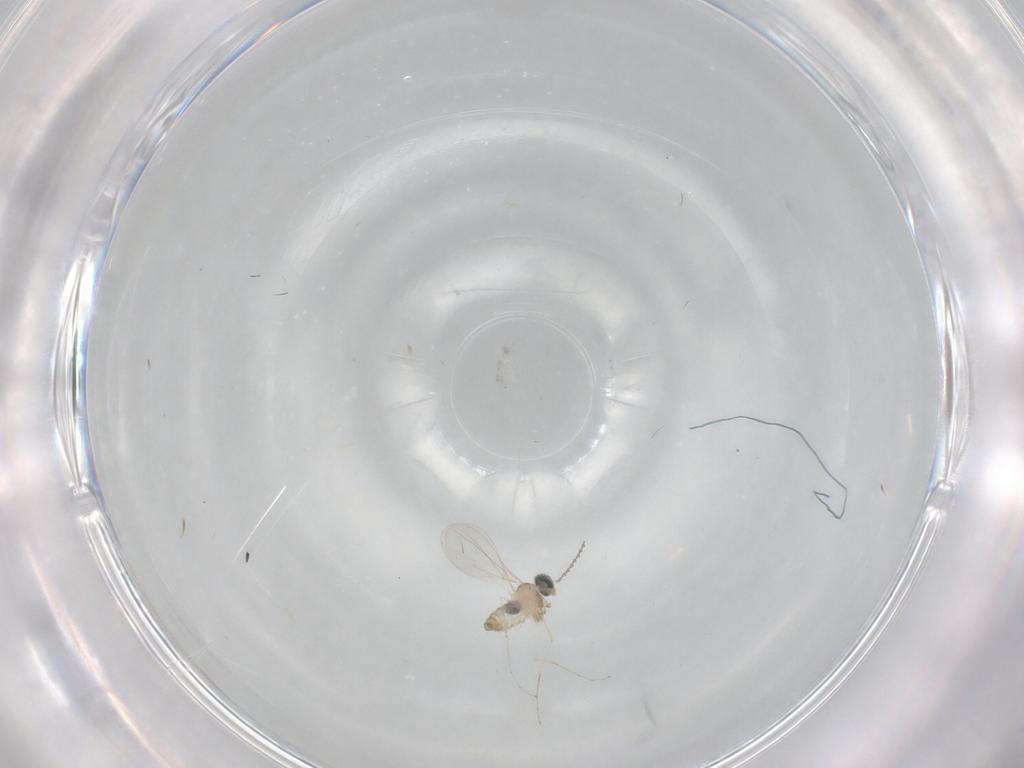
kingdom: Animalia
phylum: Arthropoda
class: Insecta
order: Diptera
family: Cecidomyiidae
